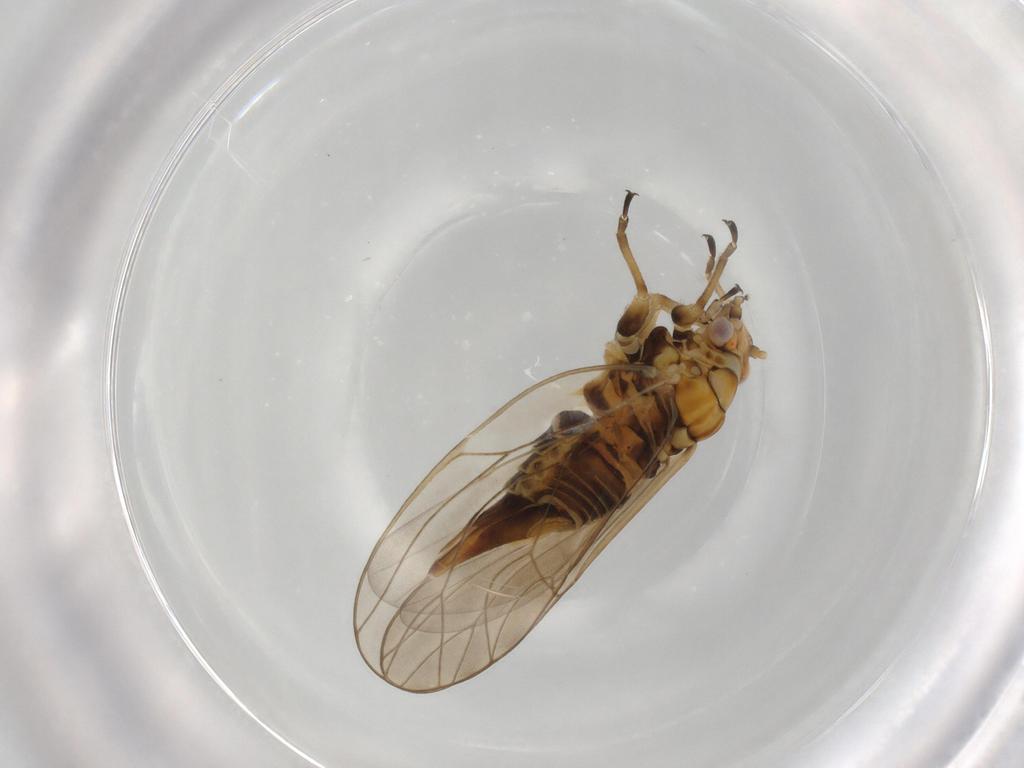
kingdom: Animalia
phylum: Arthropoda
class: Insecta
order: Hemiptera
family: Psyllidae
